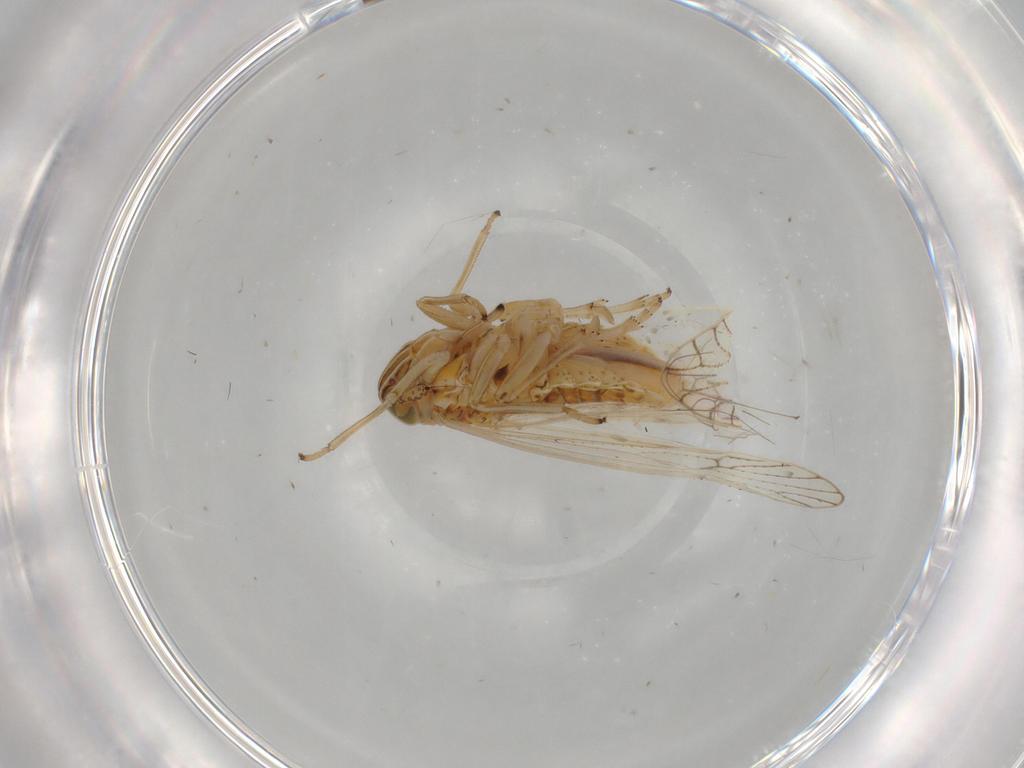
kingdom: Animalia
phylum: Arthropoda
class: Insecta
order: Hemiptera
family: Delphacidae
